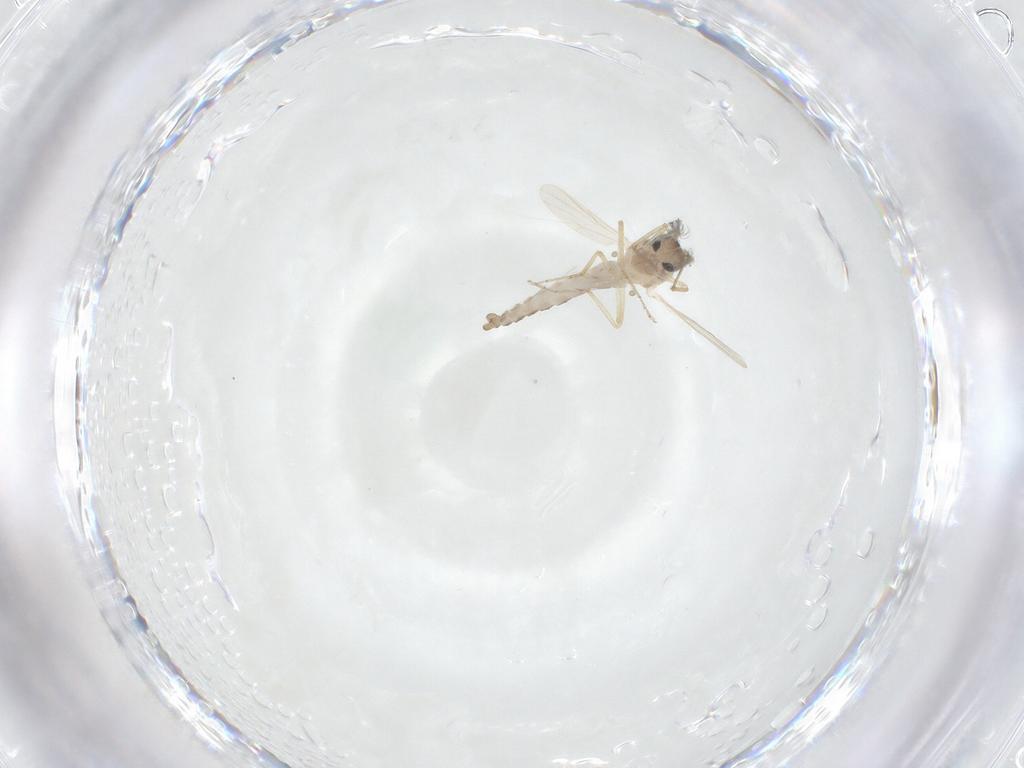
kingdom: Animalia
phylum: Arthropoda
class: Insecta
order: Diptera
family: Ceratopogonidae
